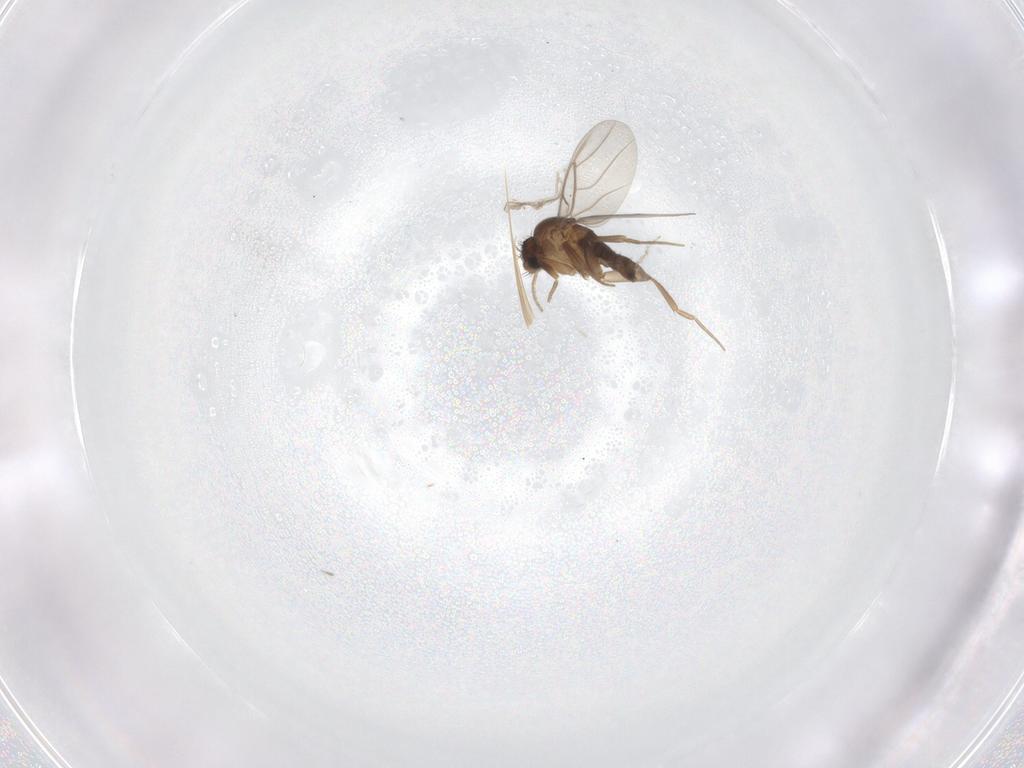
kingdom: Animalia
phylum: Arthropoda
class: Insecta
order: Diptera
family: Phoridae
